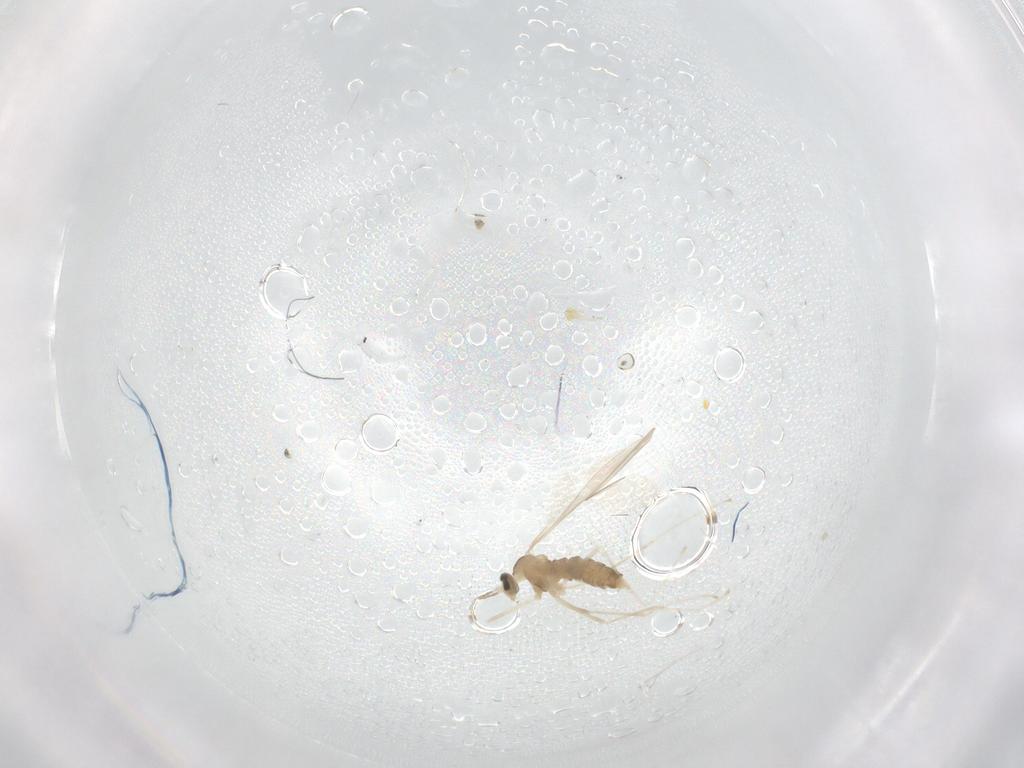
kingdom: Animalia
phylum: Arthropoda
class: Insecta
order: Diptera
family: Cecidomyiidae
